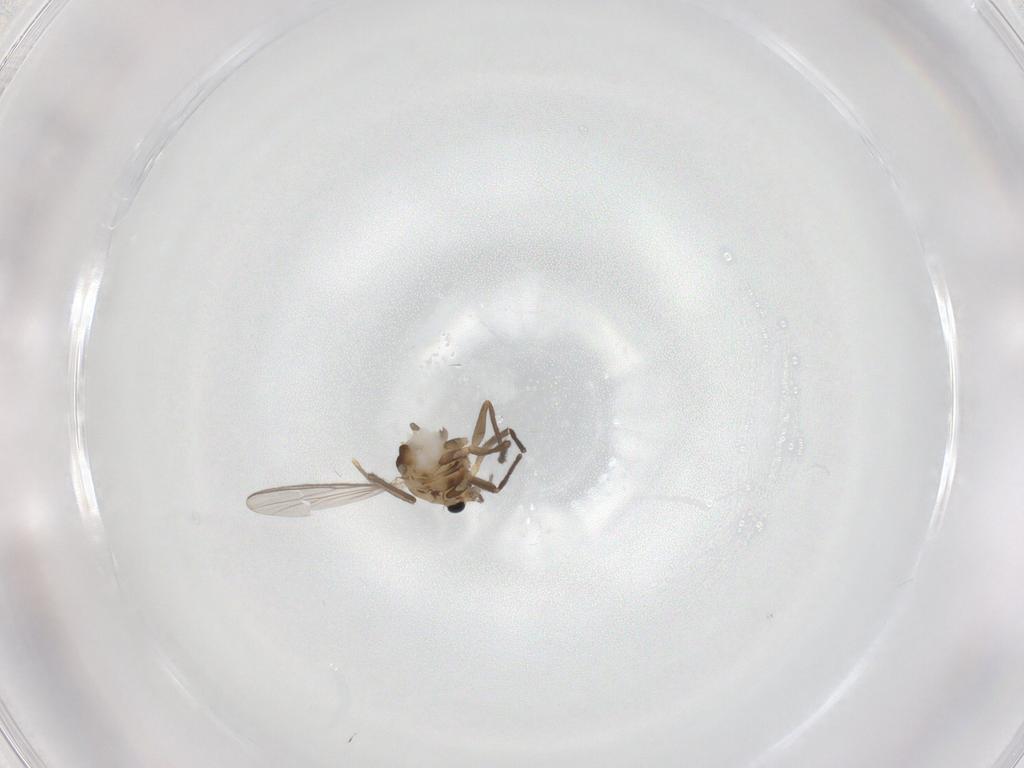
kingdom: Animalia
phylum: Arthropoda
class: Insecta
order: Diptera
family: Chironomidae
